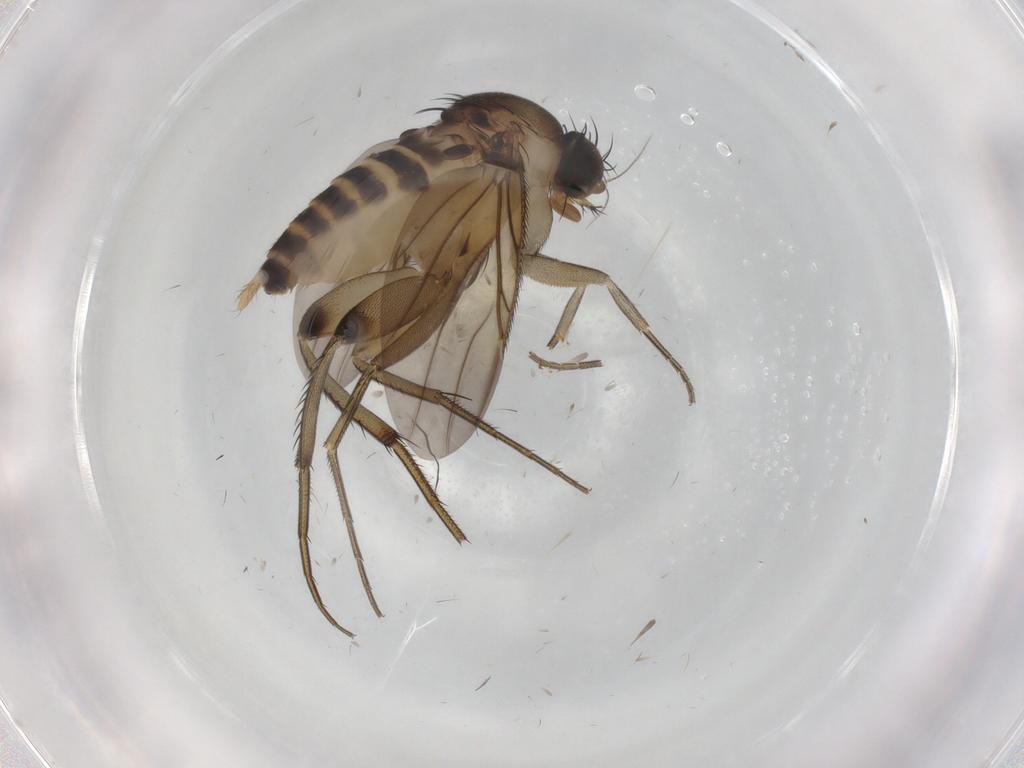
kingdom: Animalia
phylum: Arthropoda
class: Insecta
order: Diptera
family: Phoridae
